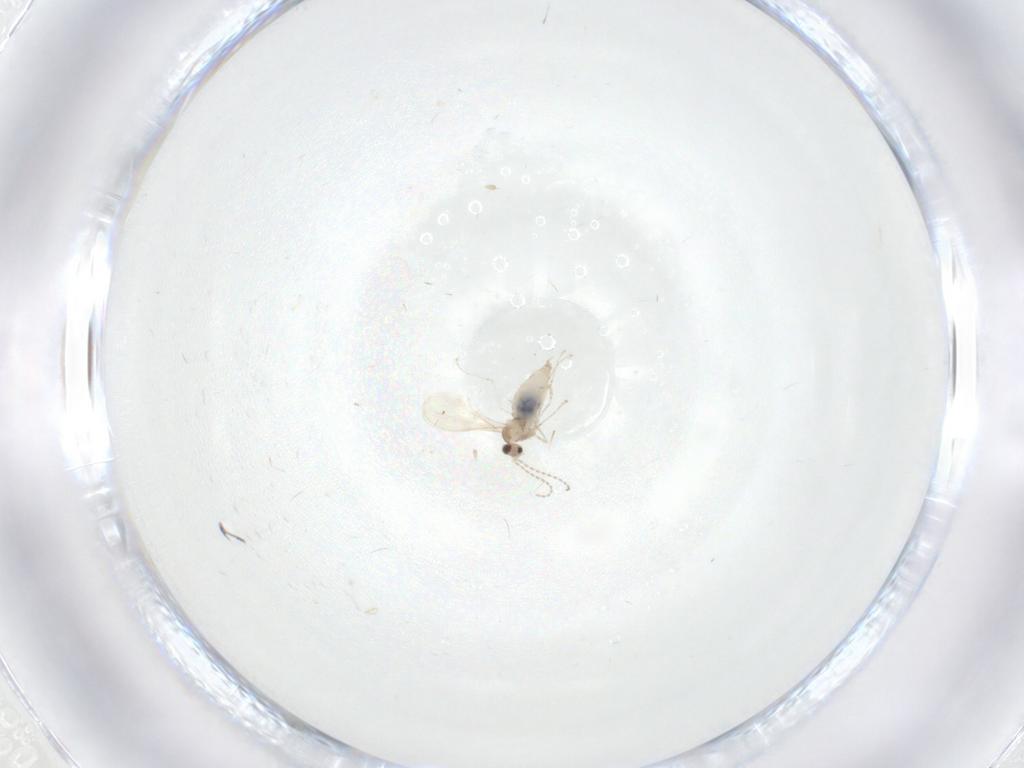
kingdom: Animalia
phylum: Arthropoda
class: Insecta
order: Diptera
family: Cecidomyiidae
